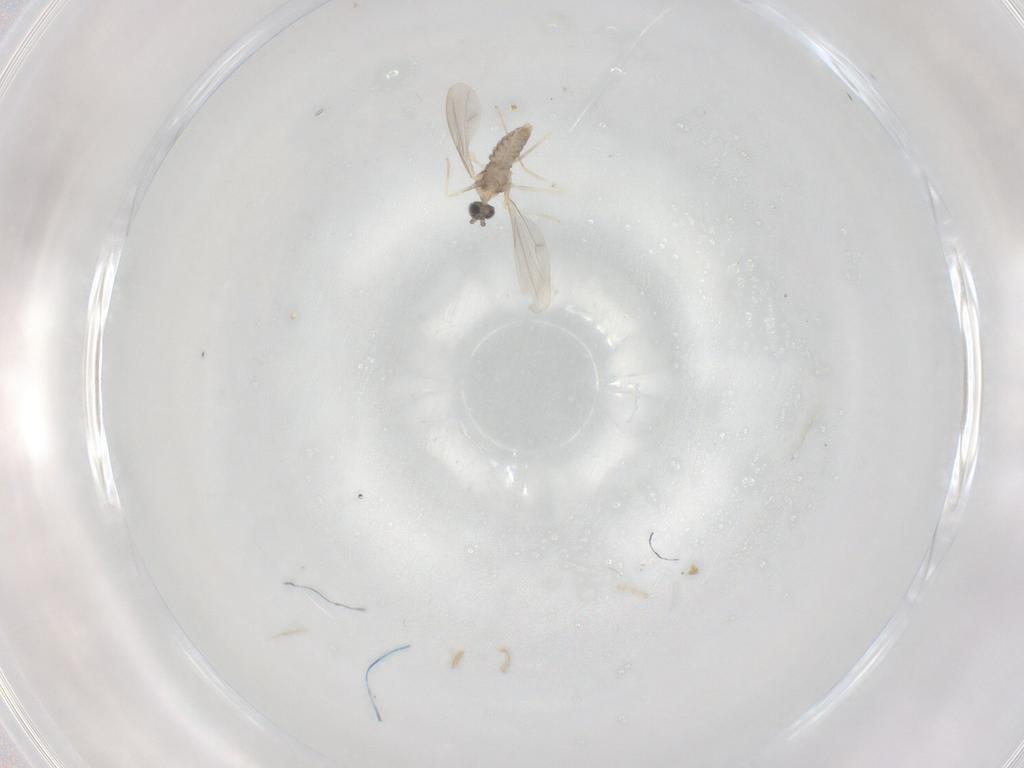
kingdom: Animalia
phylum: Arthropoda
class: Insecta
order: Diptera
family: Cecidomyiidae
